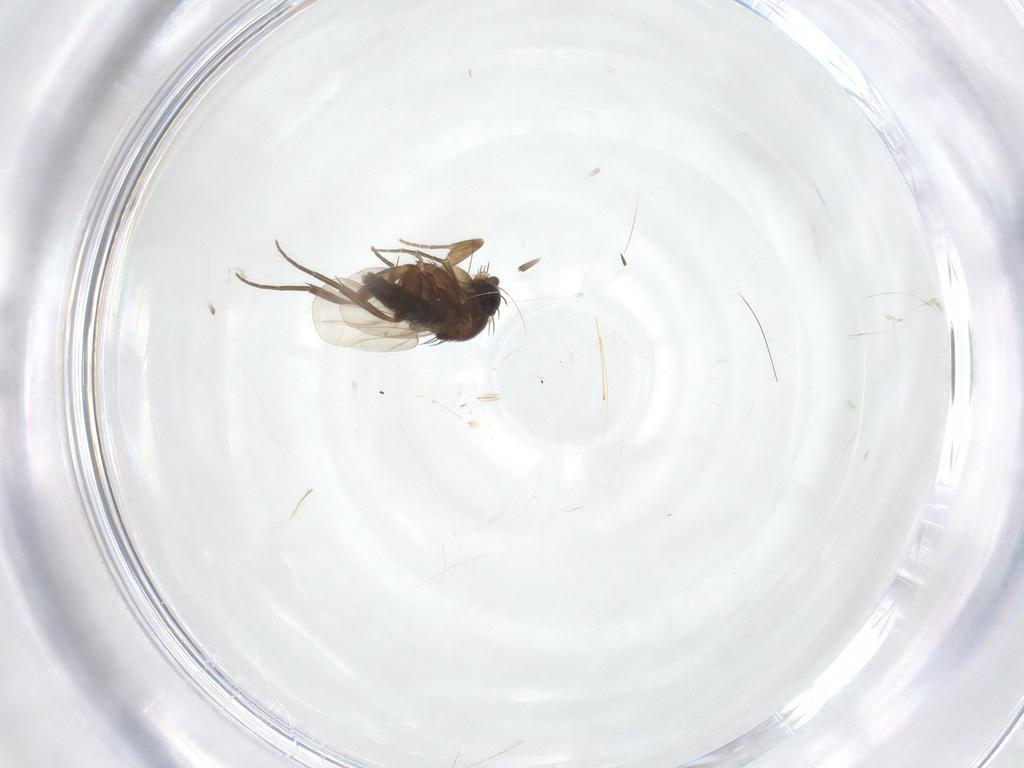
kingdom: Animalia
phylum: Arthropoda
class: Insecta
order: Diptera
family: Phoridae
